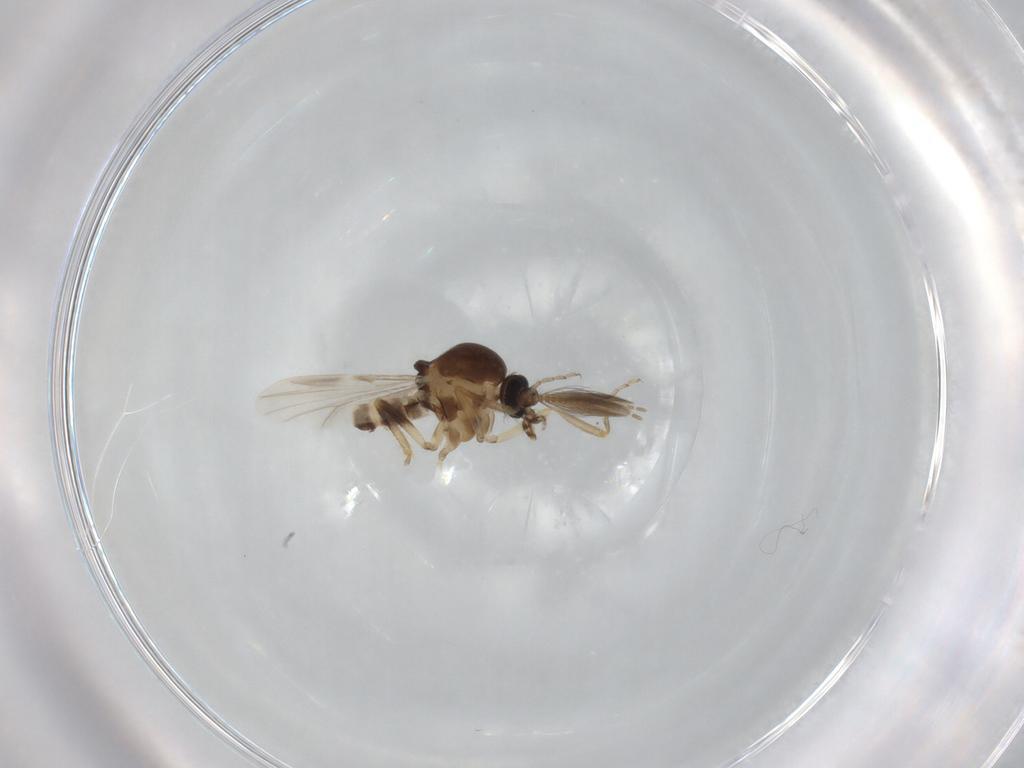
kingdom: Animalia
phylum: Arthropoda
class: Insecta
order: Diptera
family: Ceratopogonidae
